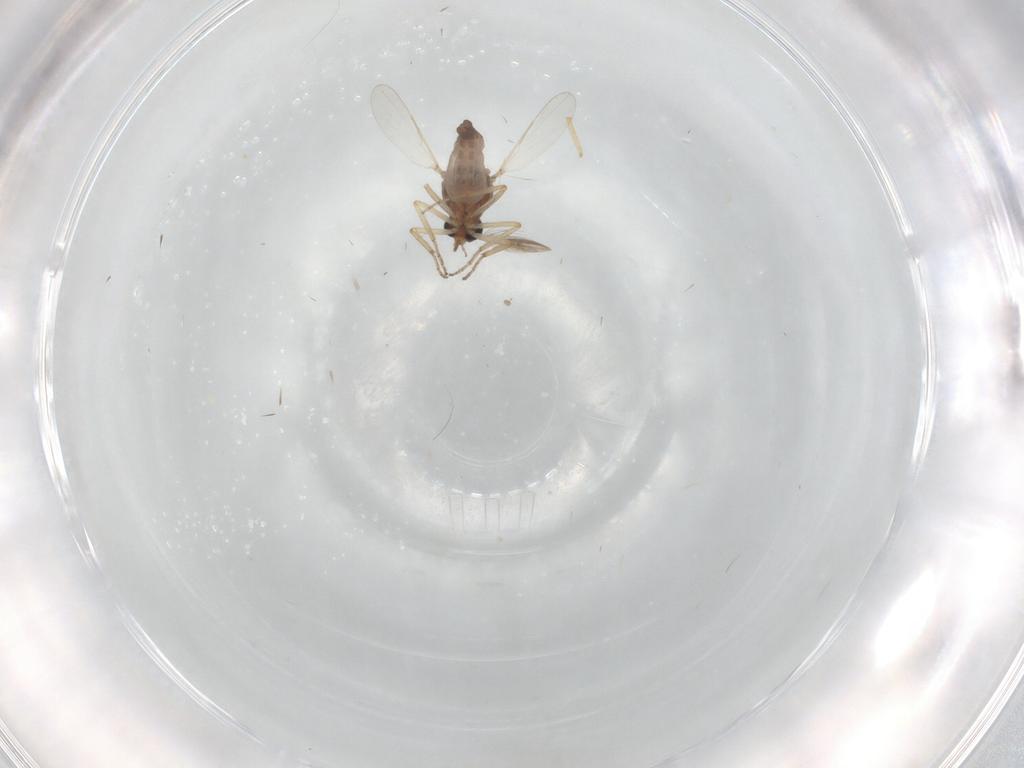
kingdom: Animalia
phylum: Arthropoda
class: Insecta
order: Diptera
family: Ceratopogonidae
